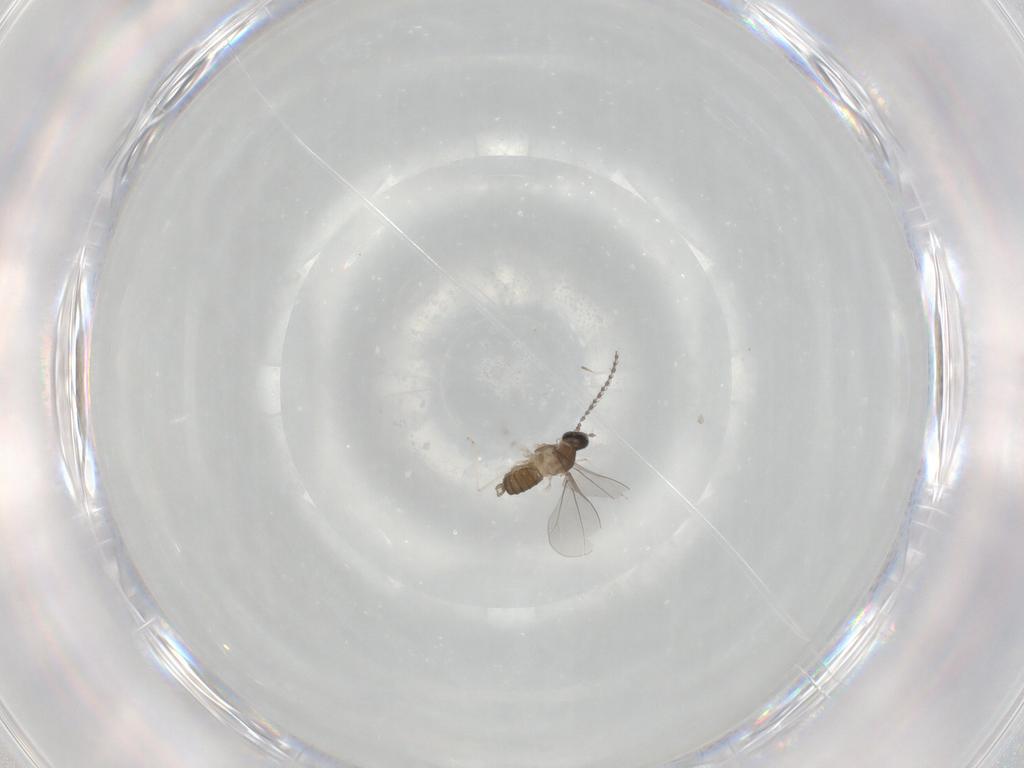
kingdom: Animalia
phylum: Arthropoda
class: Insecta
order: Diptera
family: Cecidomyiidae
